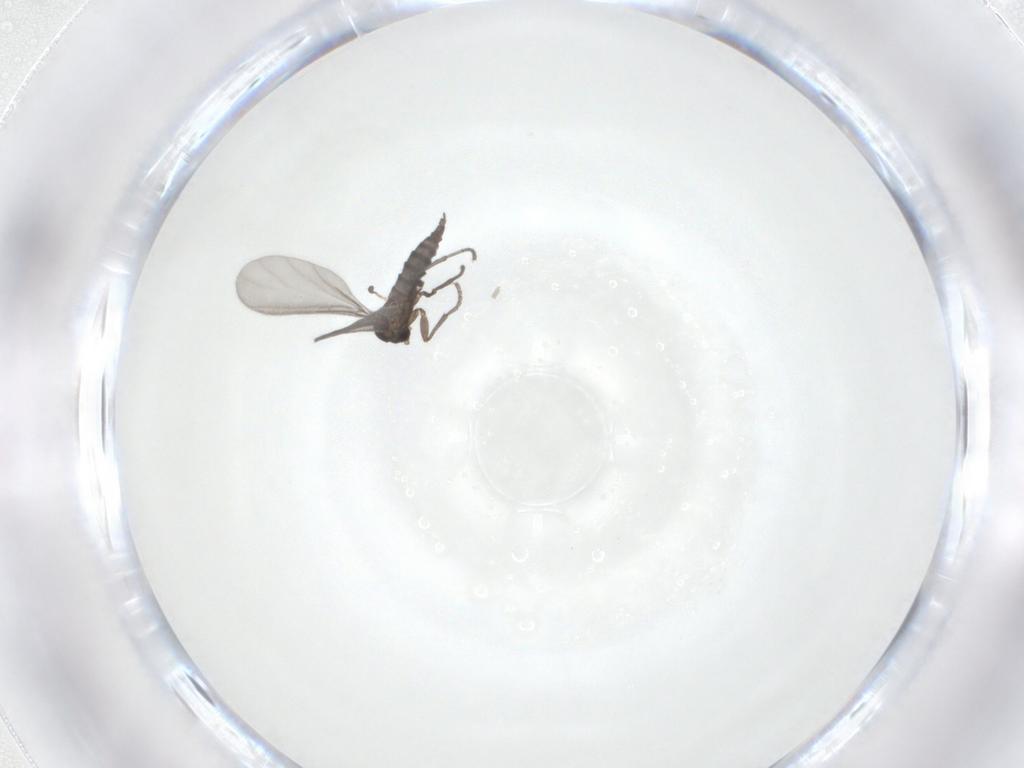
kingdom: Animalia
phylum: Arthropoda
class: Insecta
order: Diptera
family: Sciaridae
